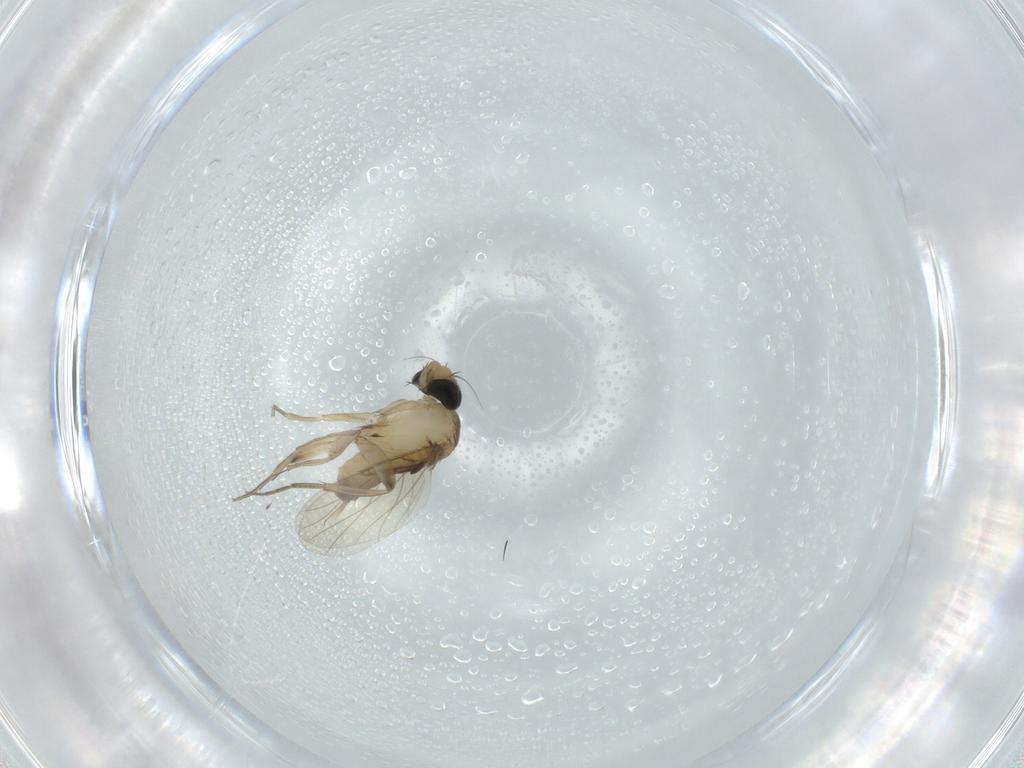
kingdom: Animalia
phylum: Arthropoda
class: Insecta
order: Diptera
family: Phoridae
